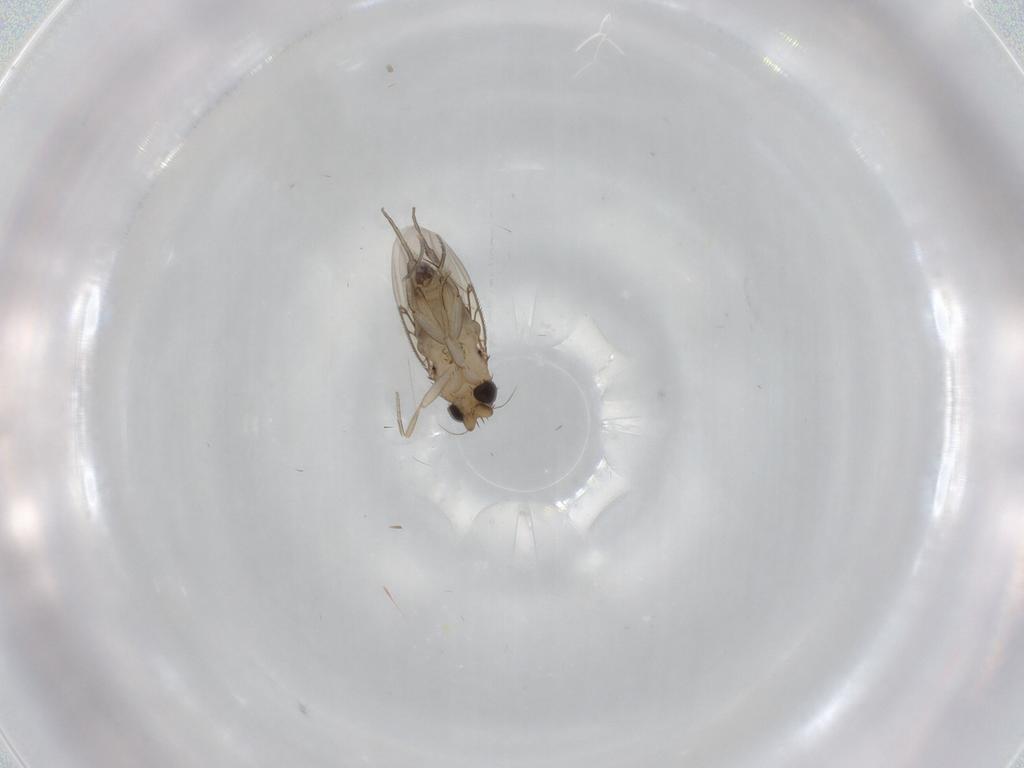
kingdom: Animalia
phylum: Arthropoda
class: Insecta
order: Diptera
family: Phoridae
